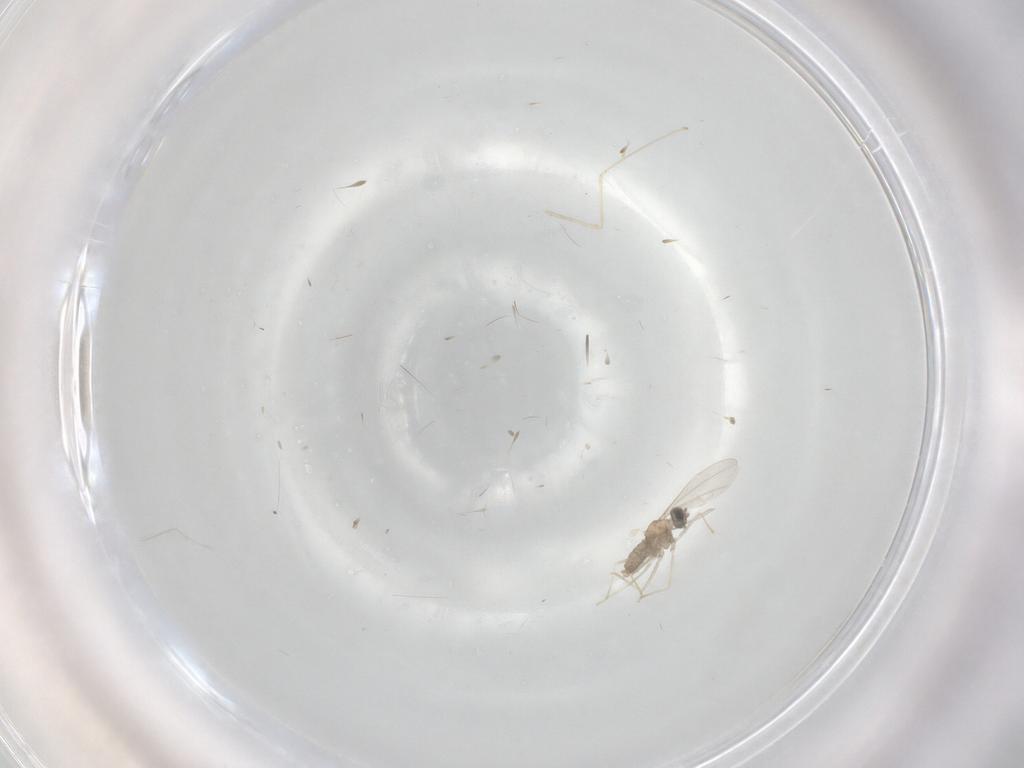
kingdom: Animalia
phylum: Arthropoda
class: Insecta
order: Diptera
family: Cecidomyiidae
